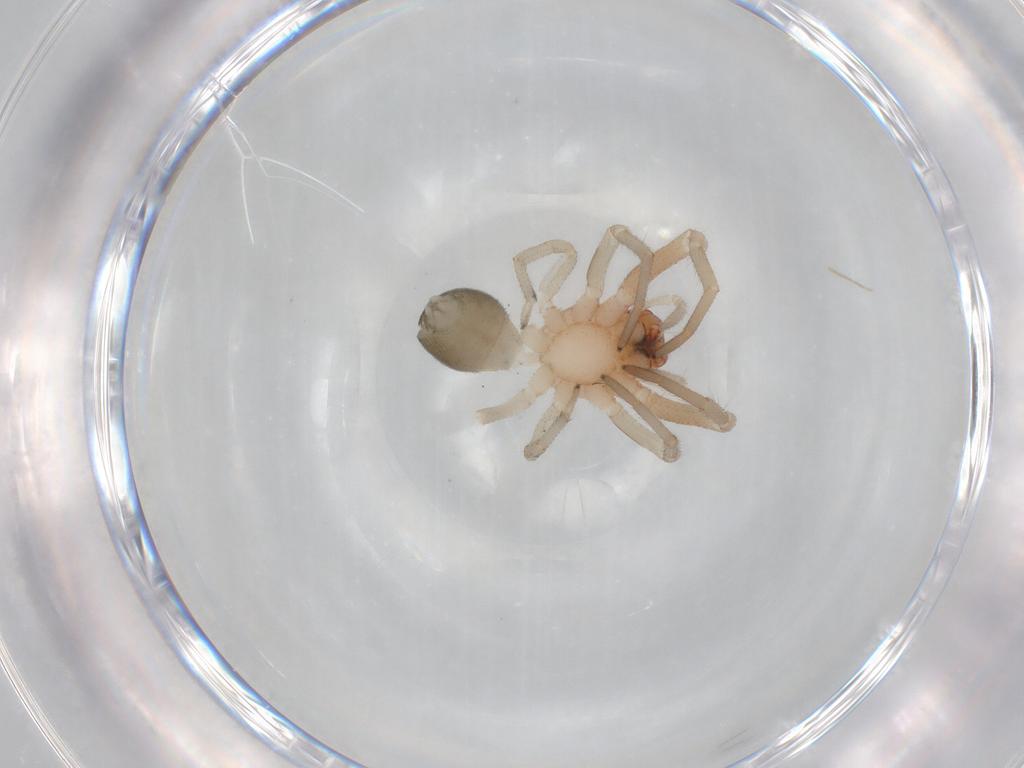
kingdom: Animalia
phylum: Arthropoda
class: Arachnida
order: Araneae
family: Trachelidae
